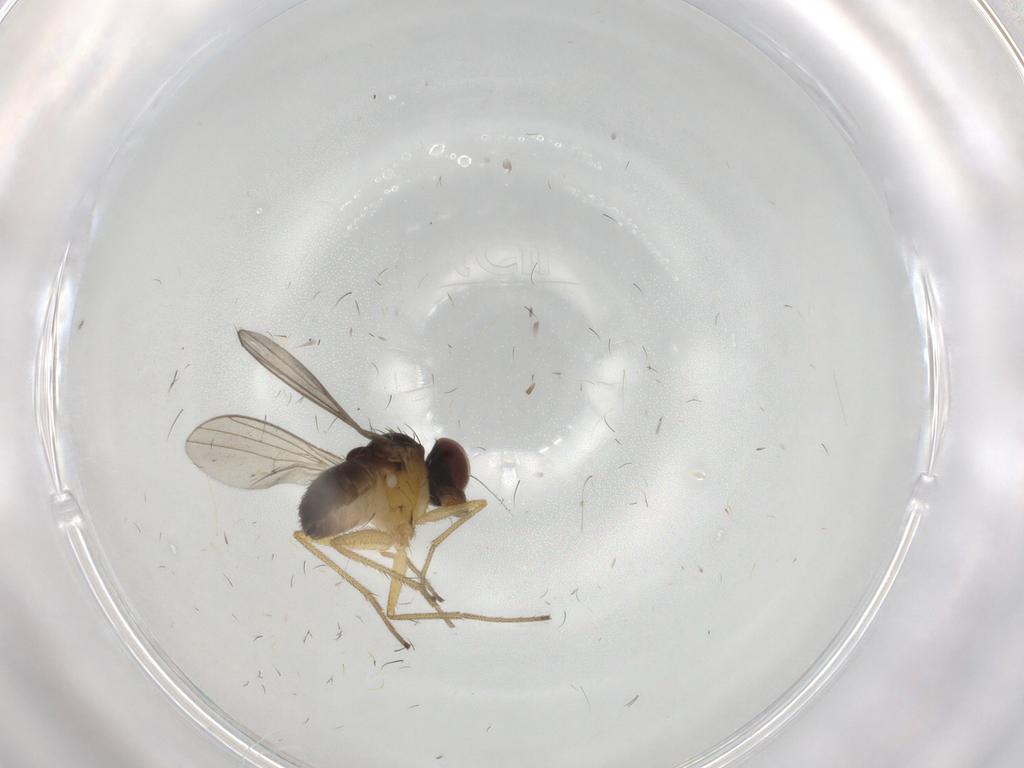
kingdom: Animalia
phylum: Arthropoda
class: Insecta
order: Diptera
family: Dolichopodidae
